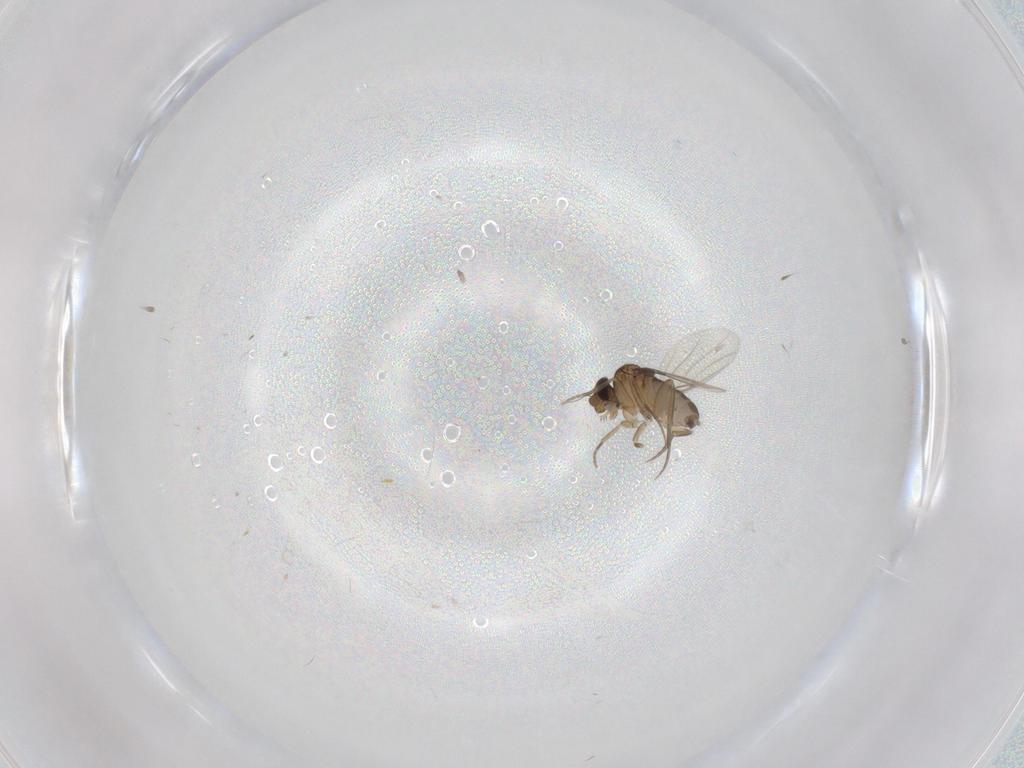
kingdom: Animalia
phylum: Arthropoda
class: Insecta
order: Diptera
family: Phoridae
